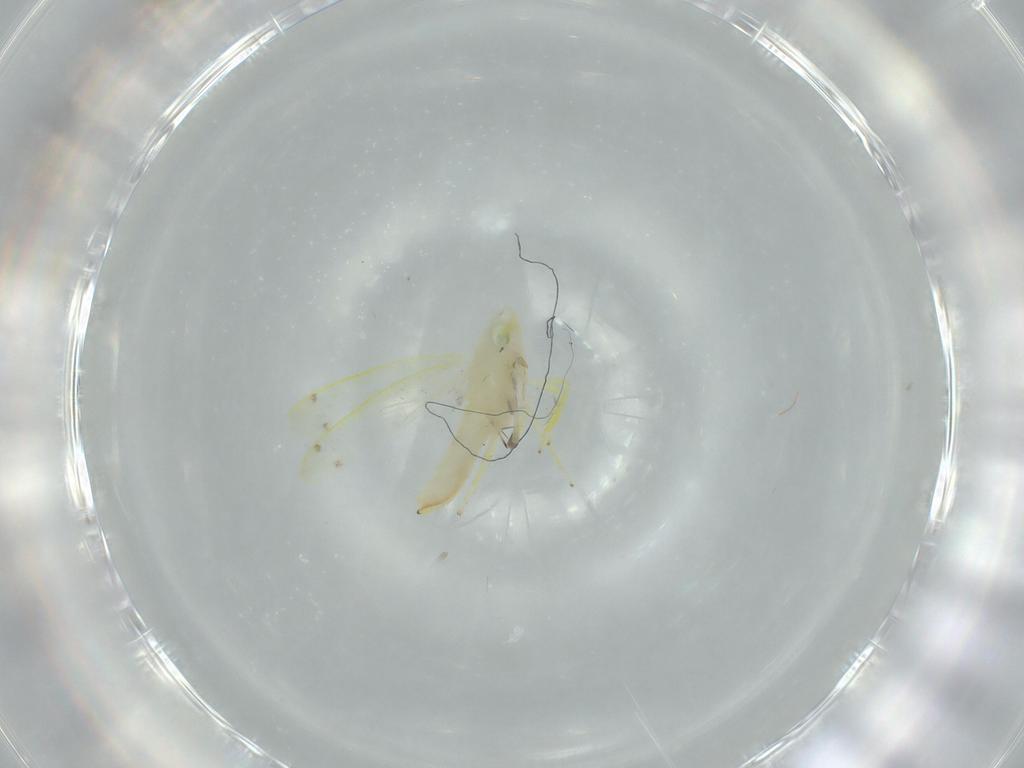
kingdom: Animalia
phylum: Arthropoda
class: Insecta
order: Hemiptera
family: Cicadellidae
